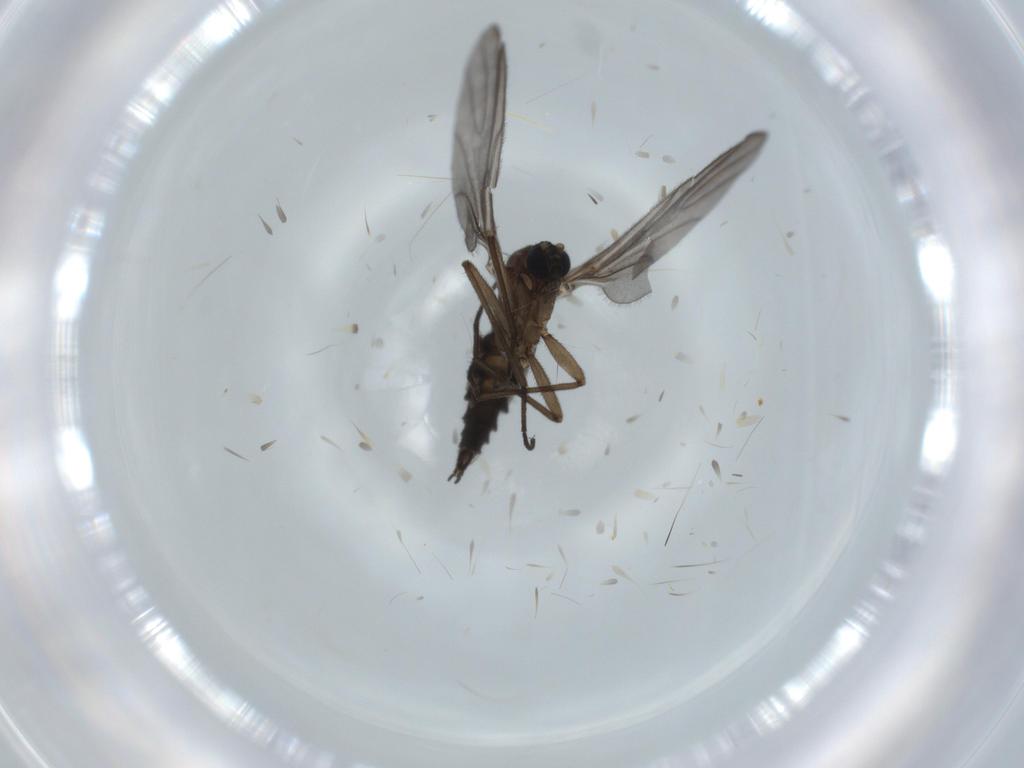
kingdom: Animalia
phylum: Arthropoda
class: Insecta
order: Diptera
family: Sciaridae
